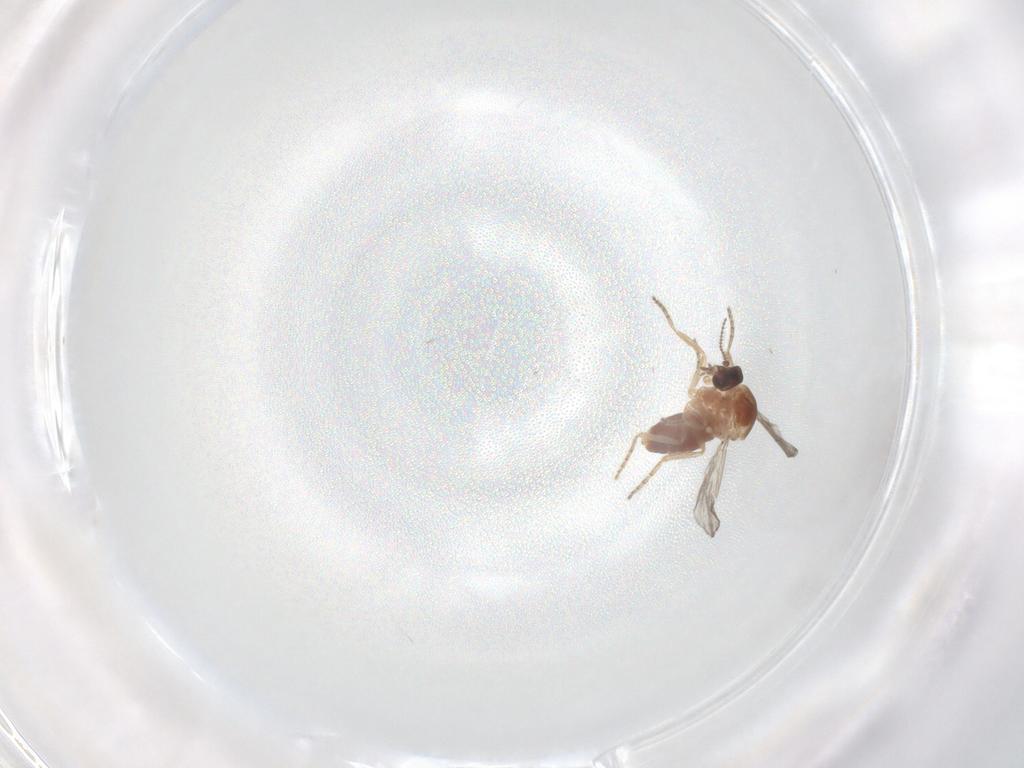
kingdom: Animalia
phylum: Arthropoda
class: Insecta
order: Diptera
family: Ceratopogonidae
